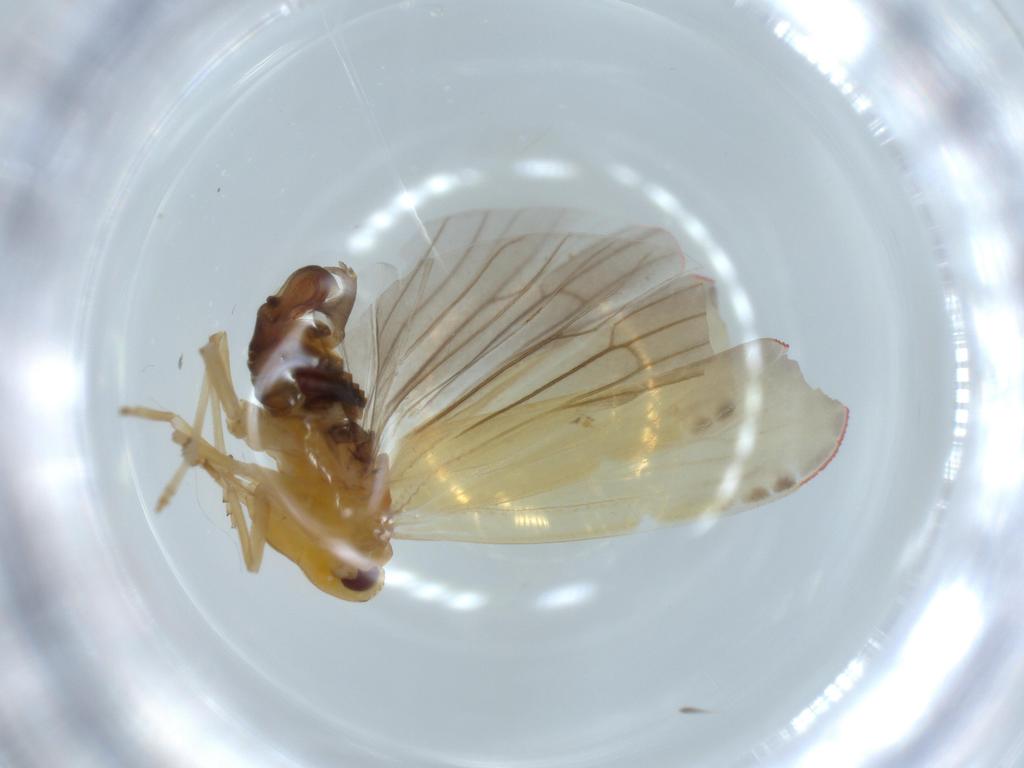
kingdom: Animalia
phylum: Arthropoda
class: Insecta
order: Hemiptera
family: Derbidae
